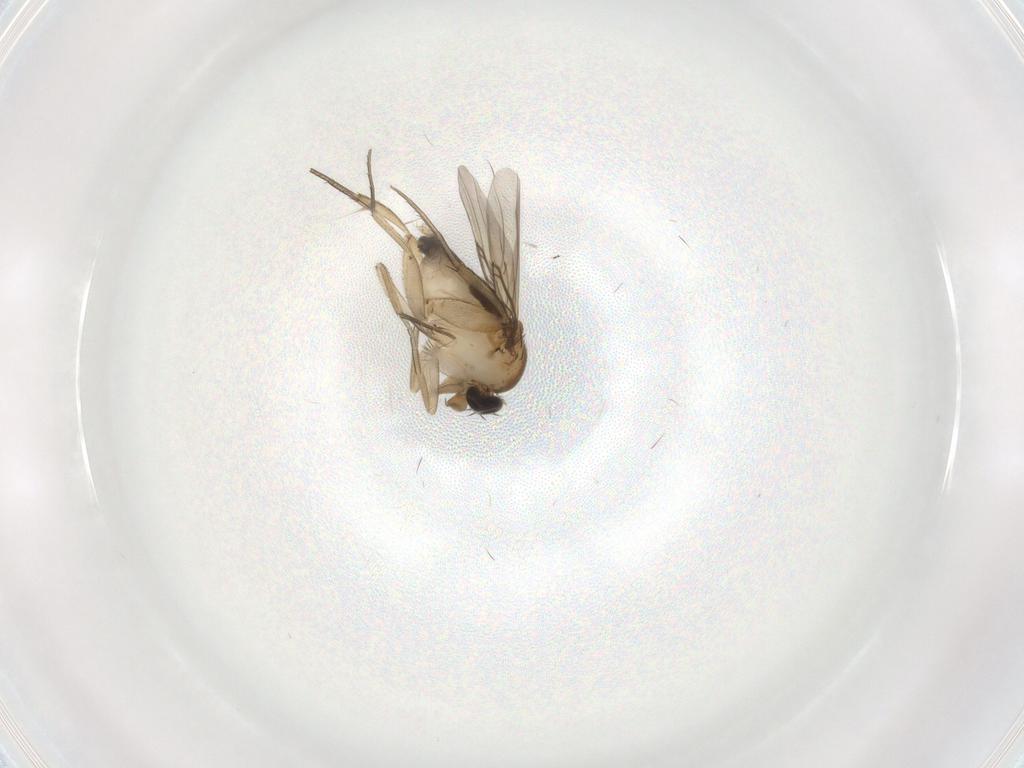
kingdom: Animalia
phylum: Arthropoda
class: Insecta
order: Diptera
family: Phoridae
